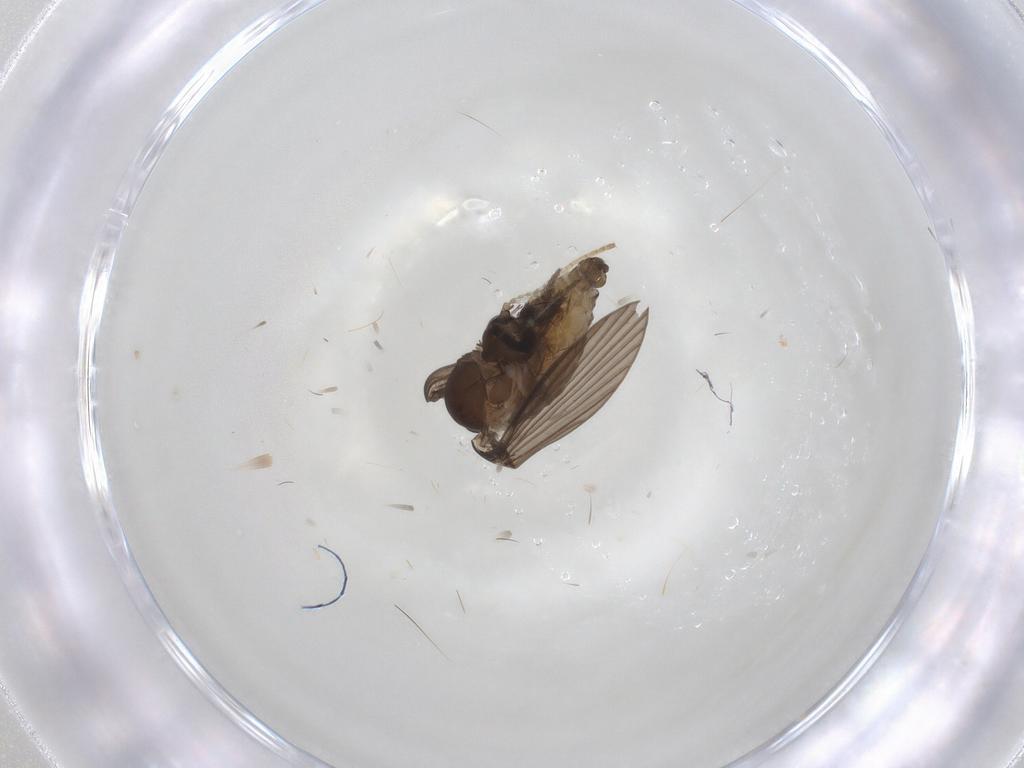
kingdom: Animalia
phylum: Arthropoda
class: Insecta
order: Diptera
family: Psychodidae
